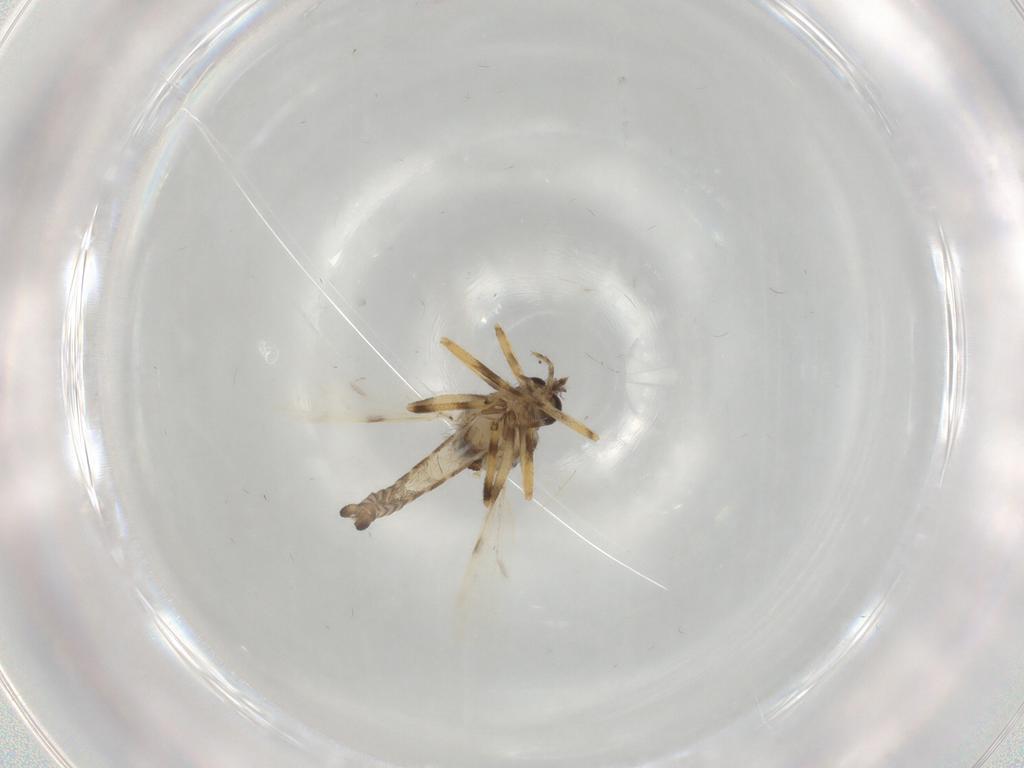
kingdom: Animalia
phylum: Arthropoda
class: Insecta
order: Diptera
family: Ceratopogonidae
